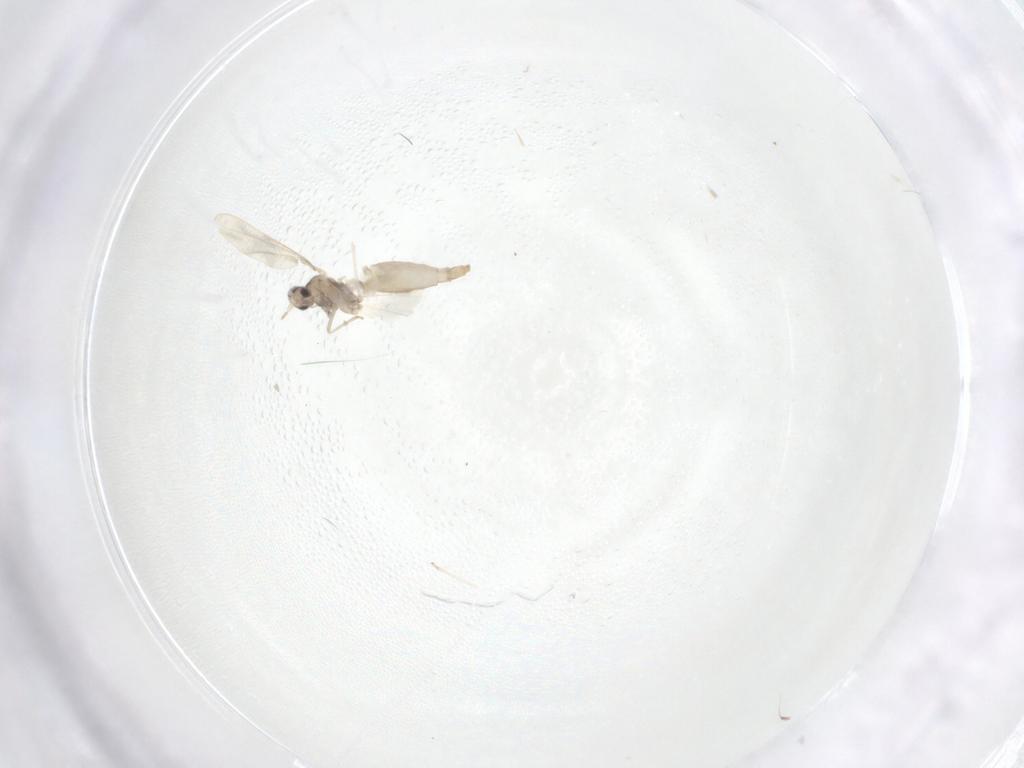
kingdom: Animalia
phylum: Arthropoda
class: Insecta
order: Diptera
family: Cecidomyiidae
